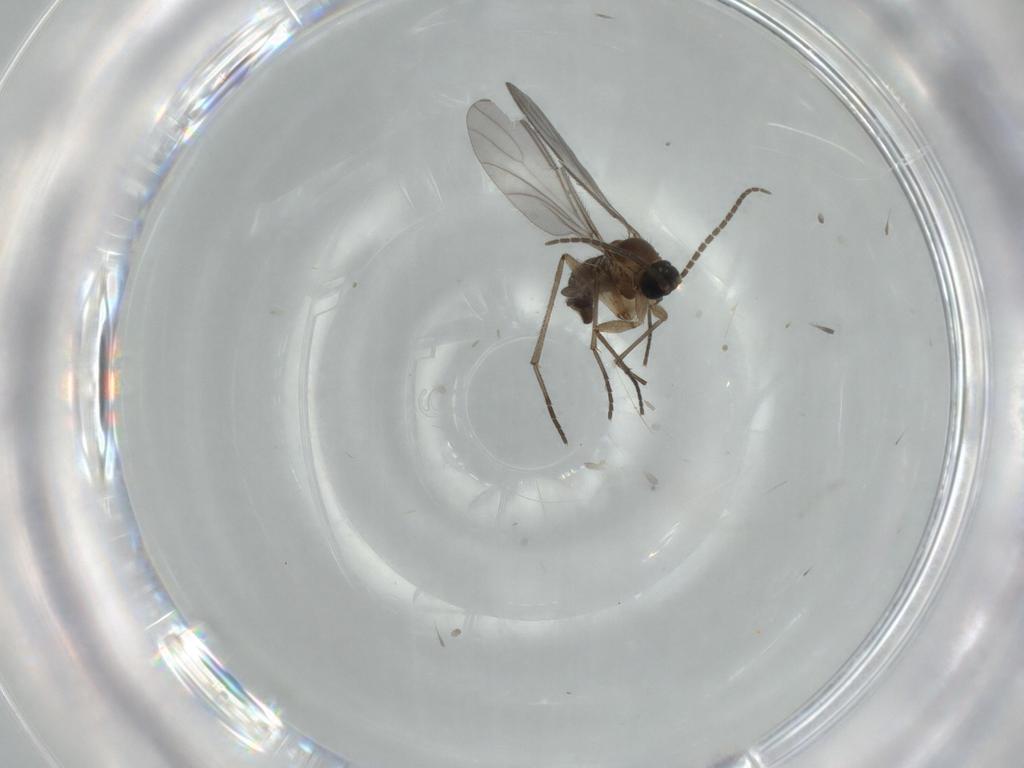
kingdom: Animalia
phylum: Arthropoda
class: Insecta
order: Diptera
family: Sciaridae
